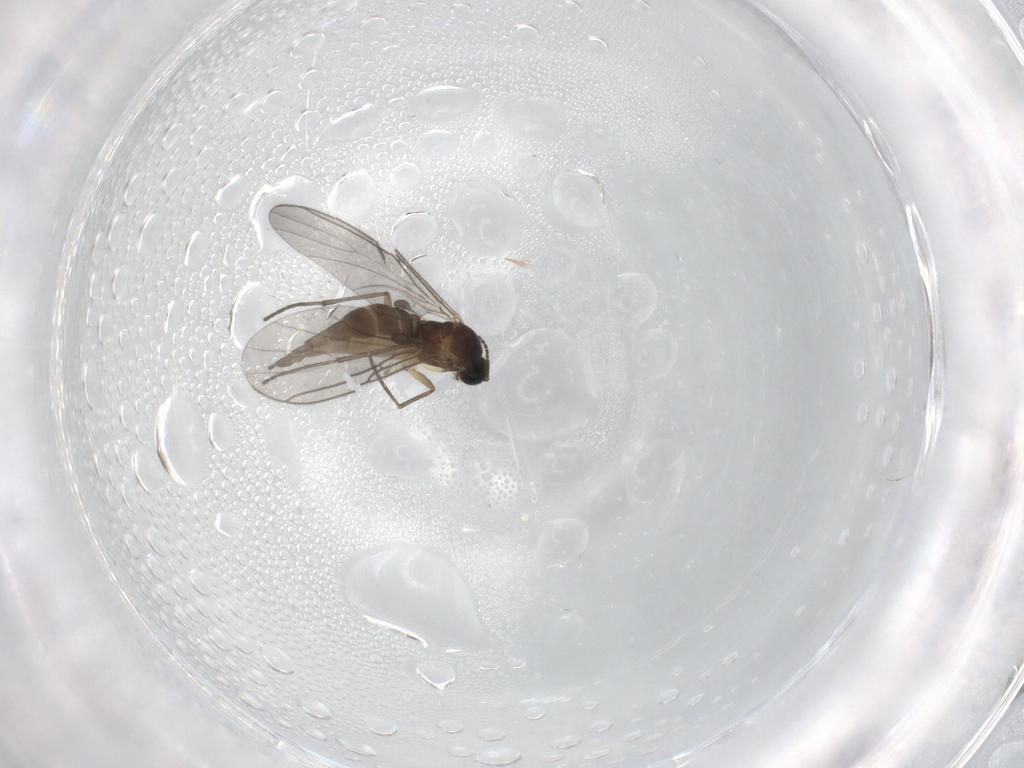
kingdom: Animalia
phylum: Arthropoda
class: Insecta
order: Diptera
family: Sciaridae
